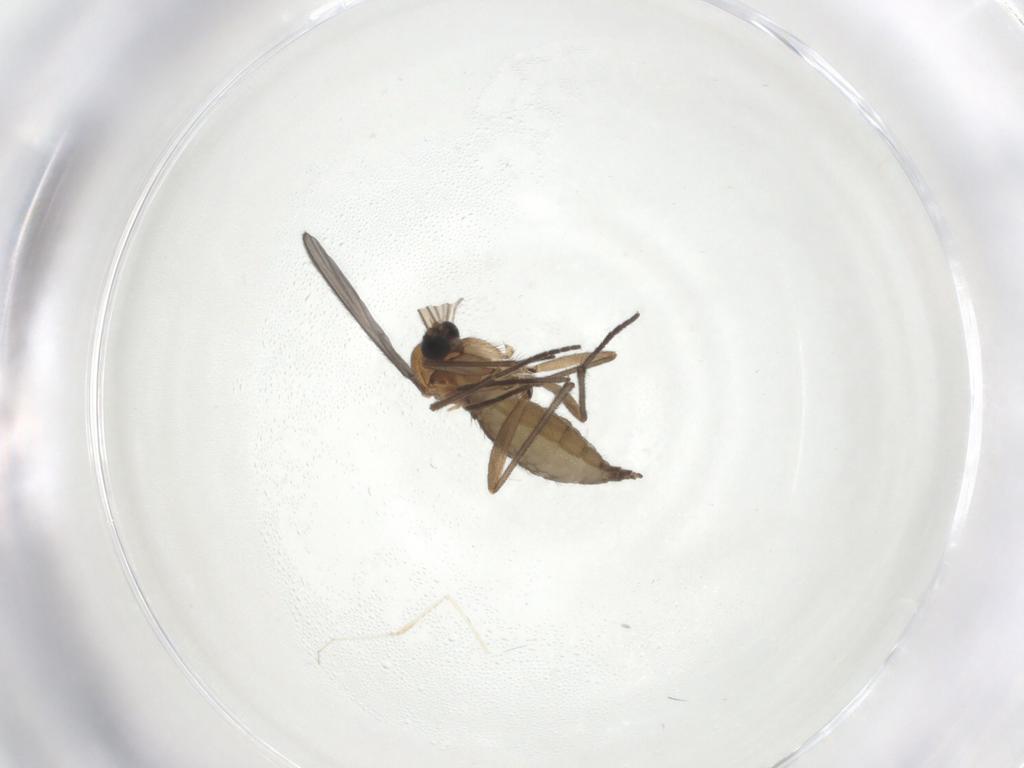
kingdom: Animalia
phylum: Arthropoda
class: Insecta
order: Diptera
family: Sciaridae
